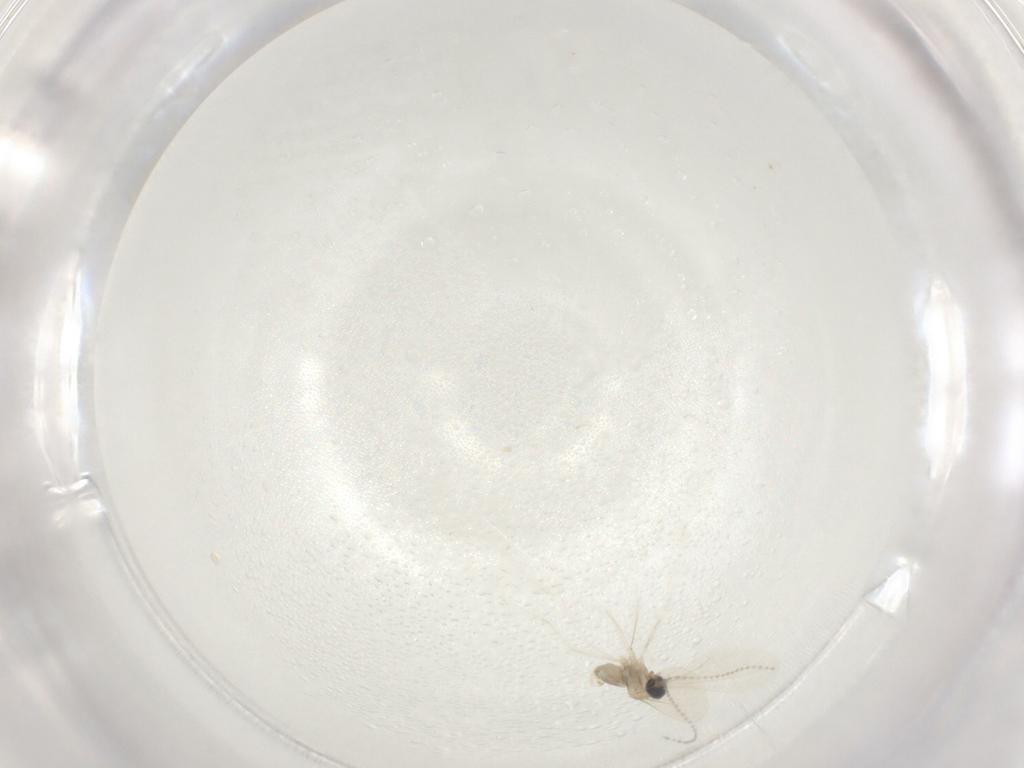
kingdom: Animalia
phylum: Arthropoda
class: Insecta
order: Diptera
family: Cecidomyiidae
